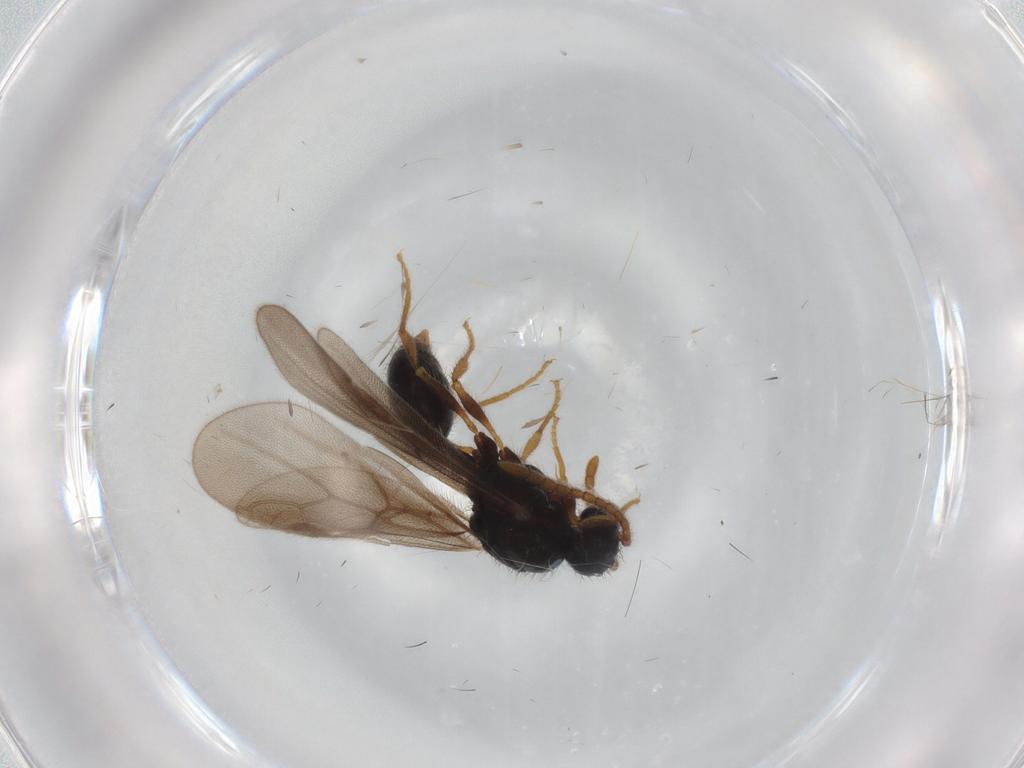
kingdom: Animalia
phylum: Arthropoda
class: Insecta
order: Hymenoptera
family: Formicidae
